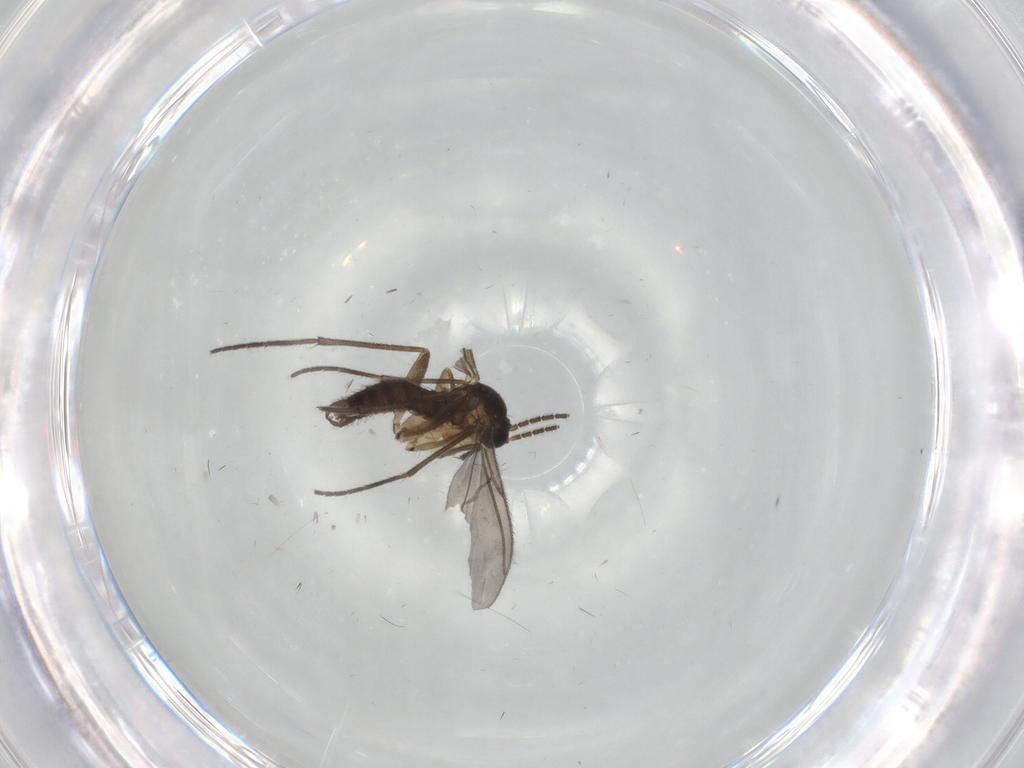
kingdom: Animalia
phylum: Arthropoda
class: Insecta
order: Diptera
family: Sciaridae
